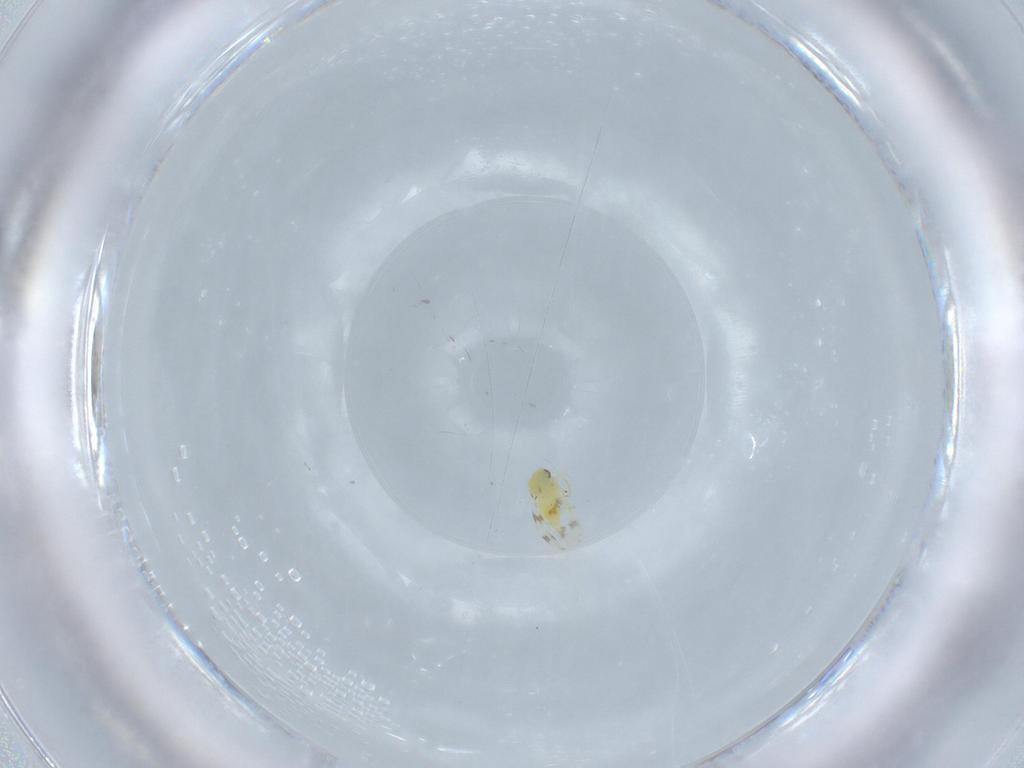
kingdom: Animalia
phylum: Arthropoda
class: Insecta
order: Hemiptera
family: Aleyrodidae
